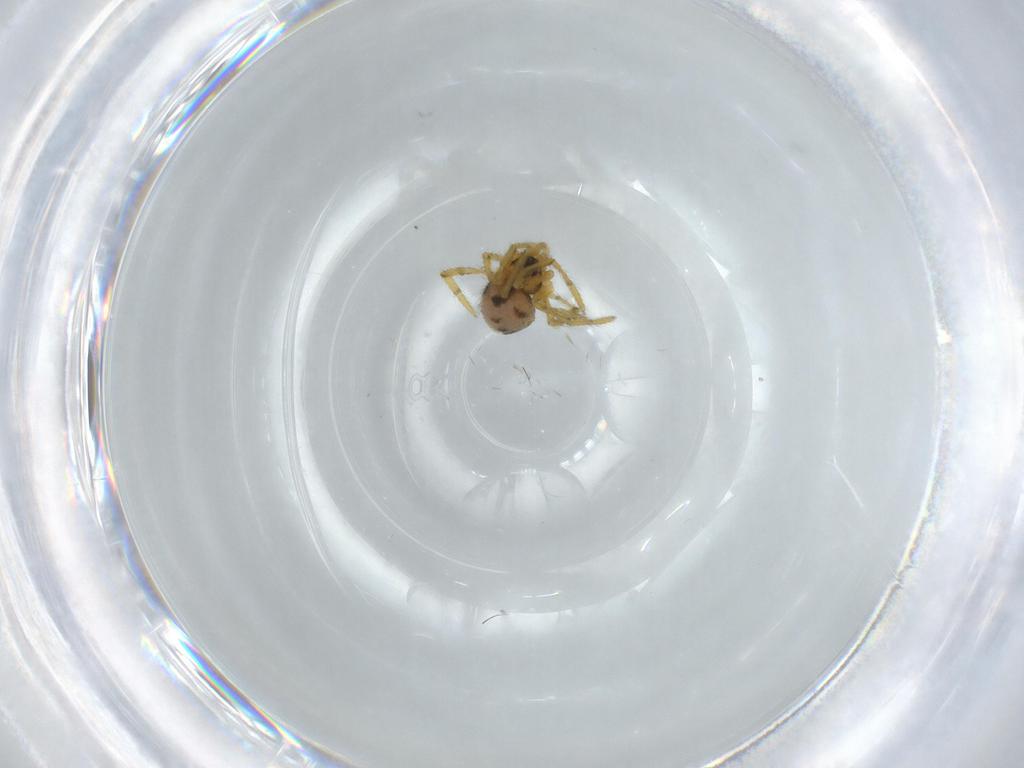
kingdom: Animalia
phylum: Arthropoda
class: Arachnida
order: Araneae
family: Theridiidae
